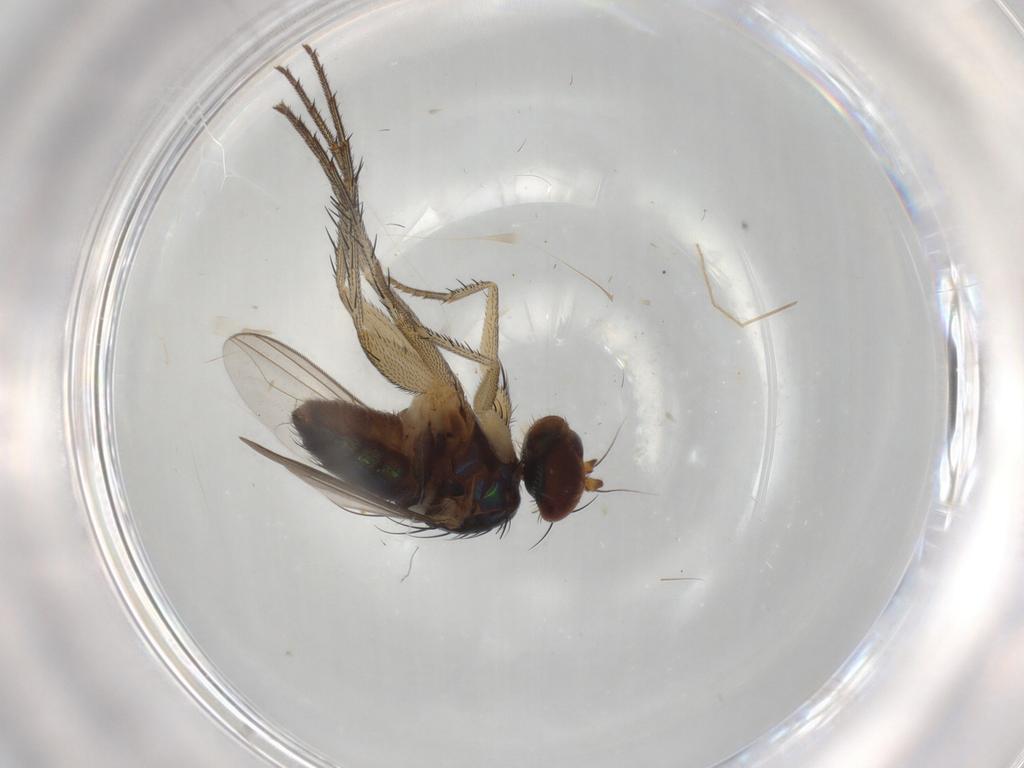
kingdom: Animalia
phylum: Arthropoda
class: Insecta
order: Diptera
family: Dolichopodidae
